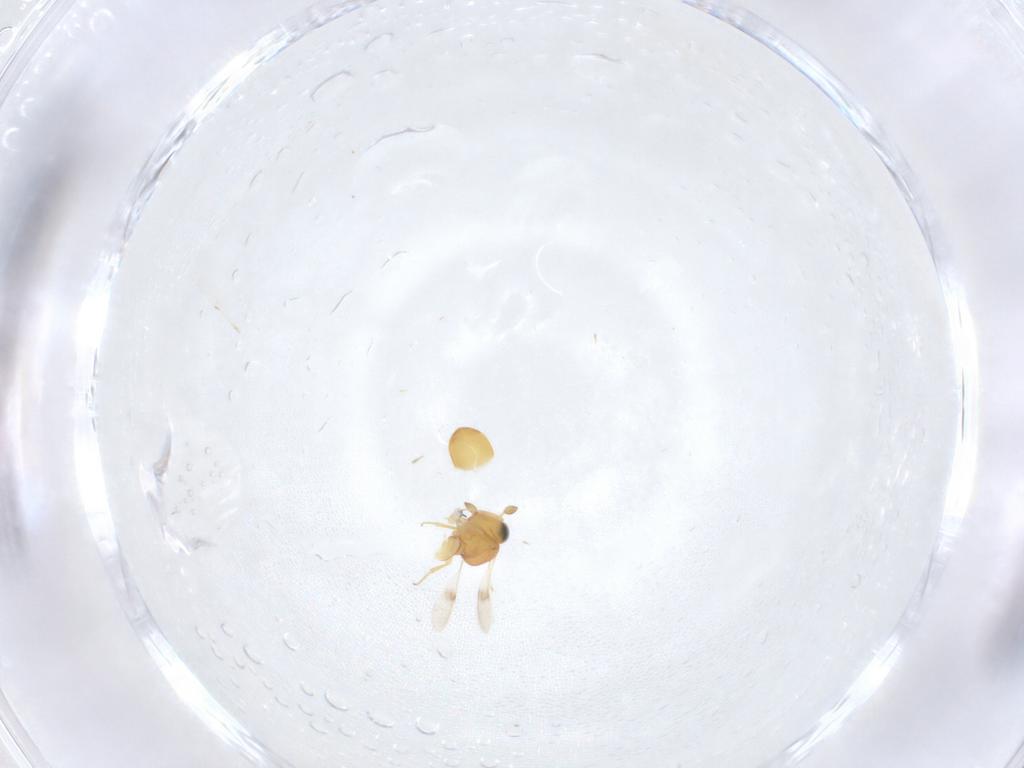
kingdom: Animalia
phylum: Arthropoda
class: Insecta
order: Hymenoptera
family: Scelionidae
